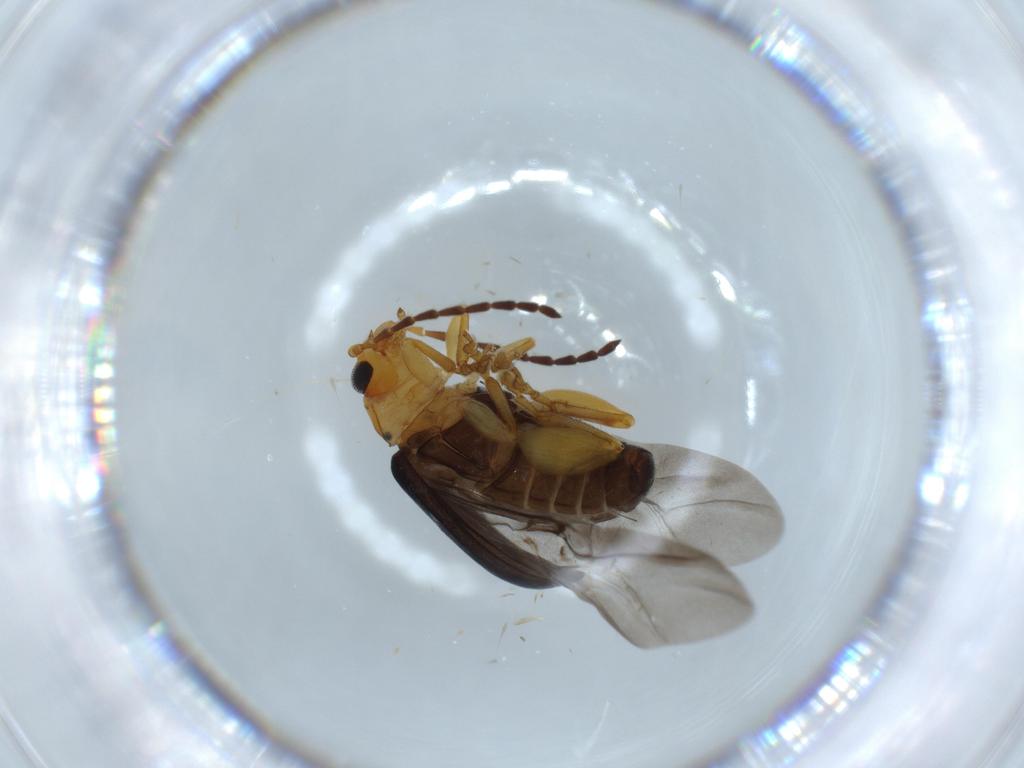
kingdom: Animalia
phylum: Arthropoda
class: Insecta
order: Coleoptera
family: Chrysomelidae
